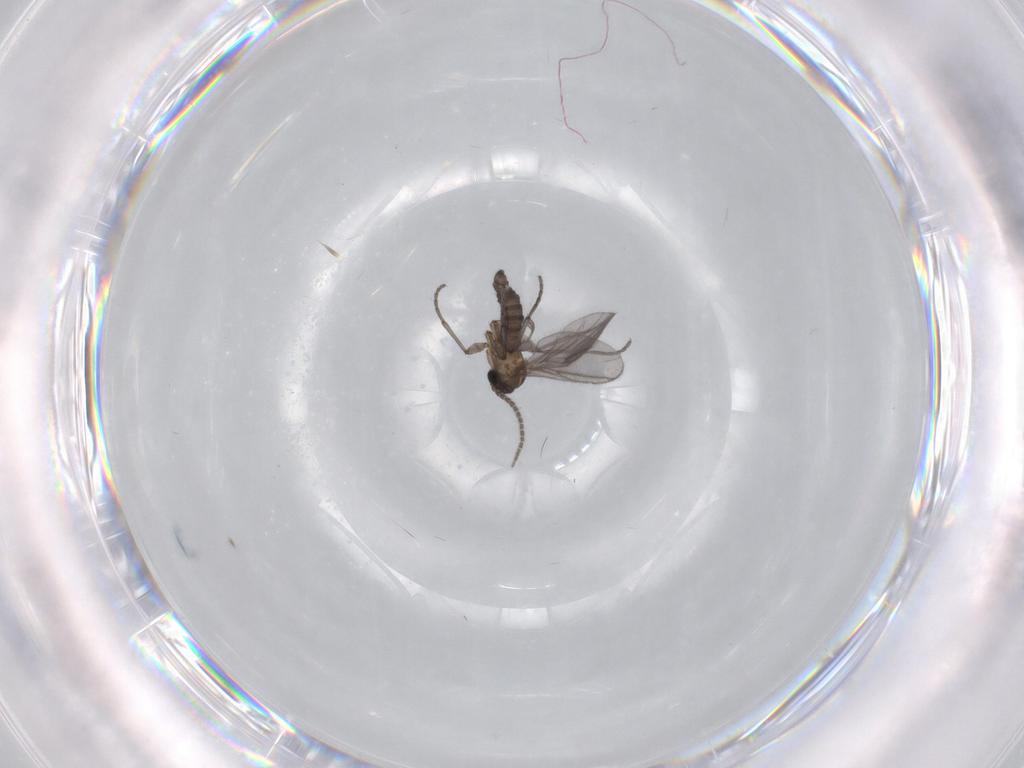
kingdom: Animalia
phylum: Arthropoda
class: Insecta
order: Diptera
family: Sciaridae
